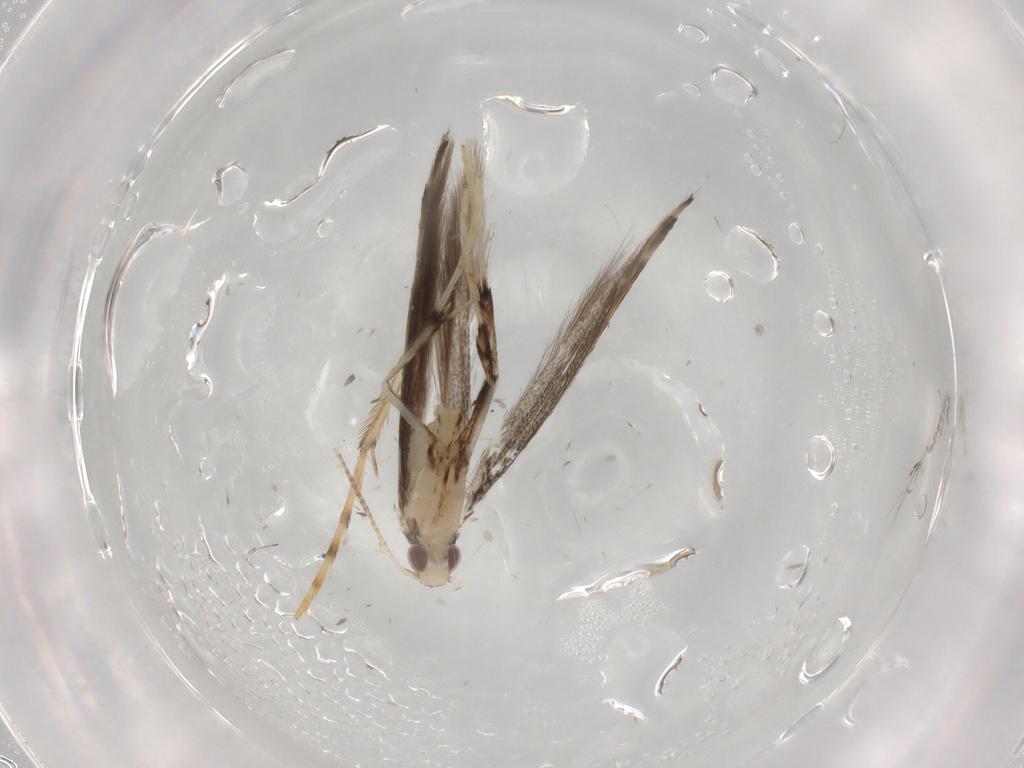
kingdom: Animalia
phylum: Arthropoda
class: Insecta
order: Lepidoptera
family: Gracillariidae
